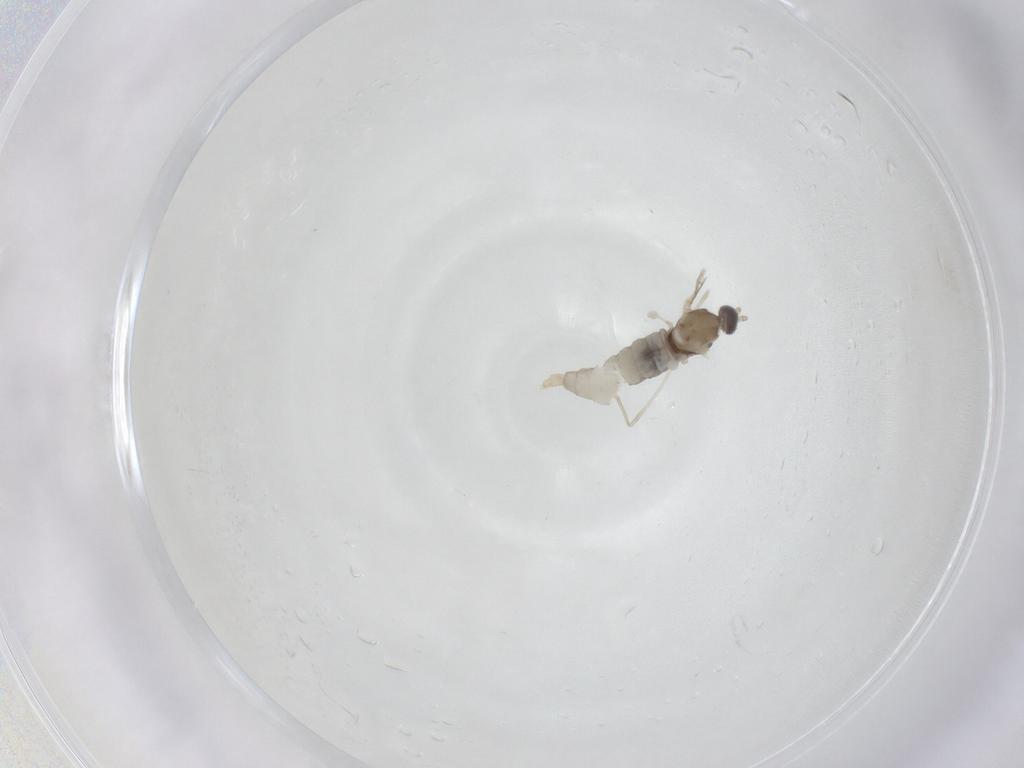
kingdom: Animalia
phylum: Arthropoda
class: Insecta
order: Diptera
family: Cecidomyiidae
